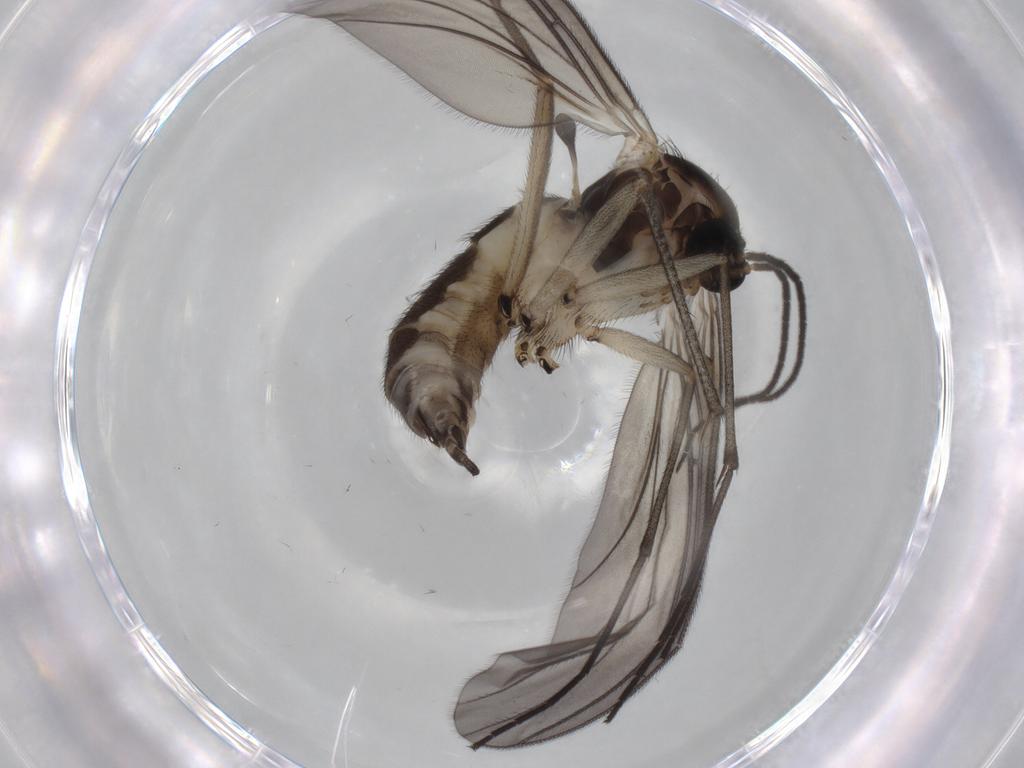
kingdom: Animalia
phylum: Arthropoda
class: Insecta
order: Diptera
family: Sciaridae
